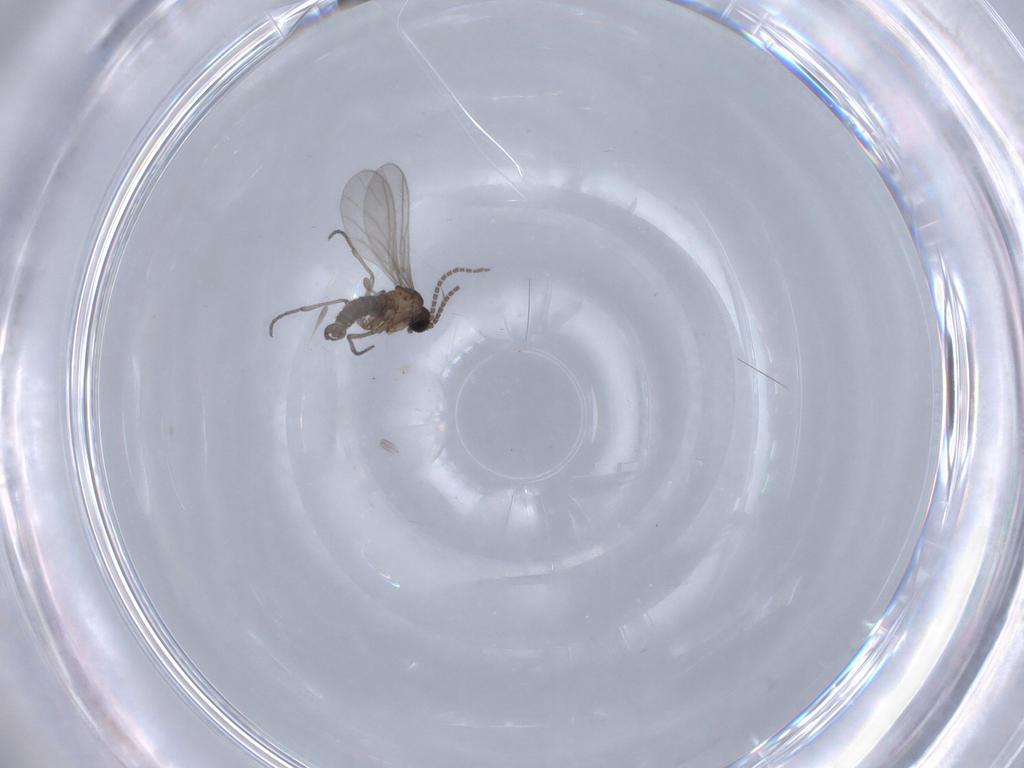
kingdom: Animalia
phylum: Arthropoda
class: Insecta
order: Diptera
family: Sciaridae
